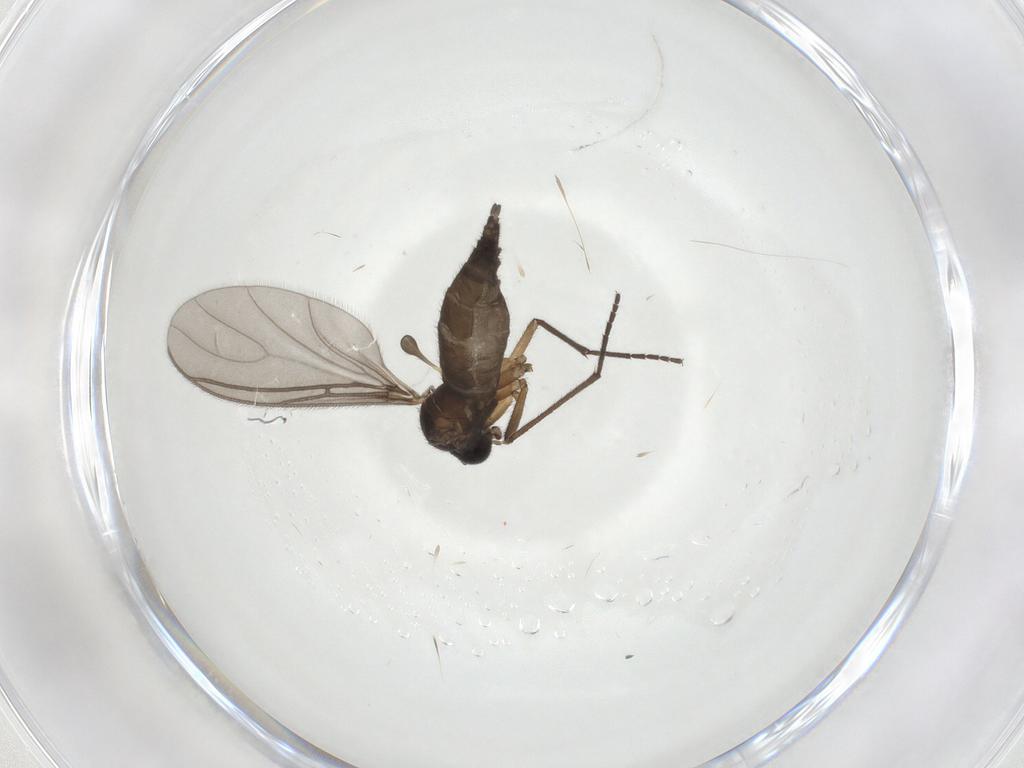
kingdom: Animalia
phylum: Arthropoda
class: Insecta
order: Diptera
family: Sciaridae
